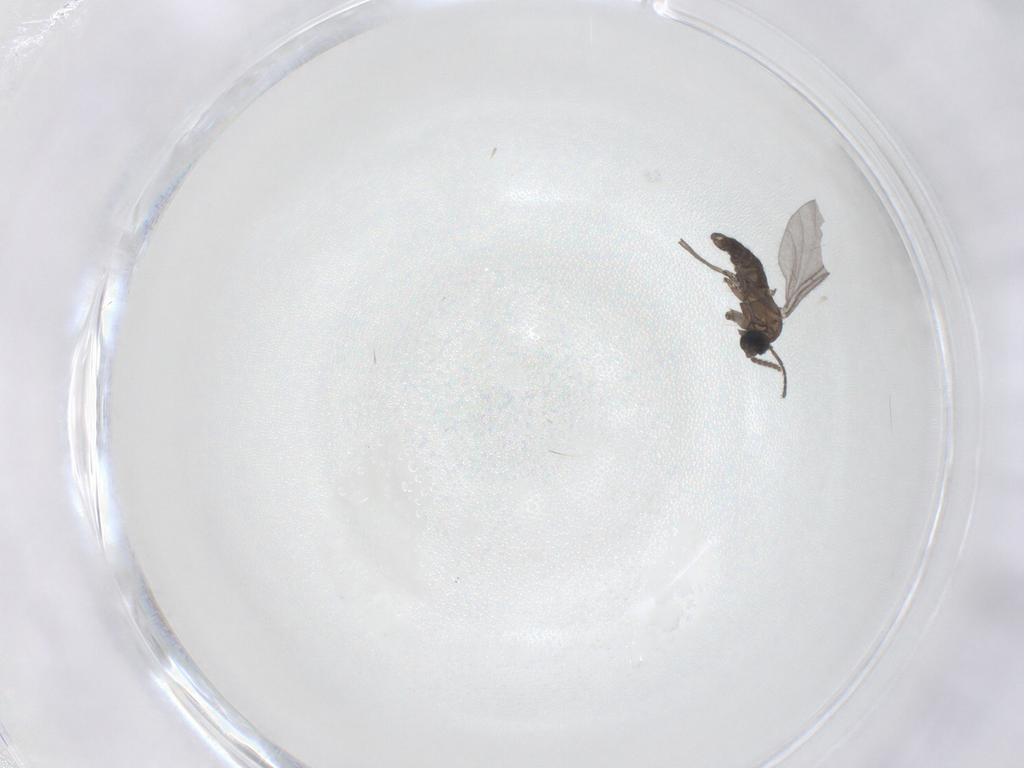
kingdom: Animalia
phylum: Arthropoda
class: Insecta
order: Diptera
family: Sciaridae
